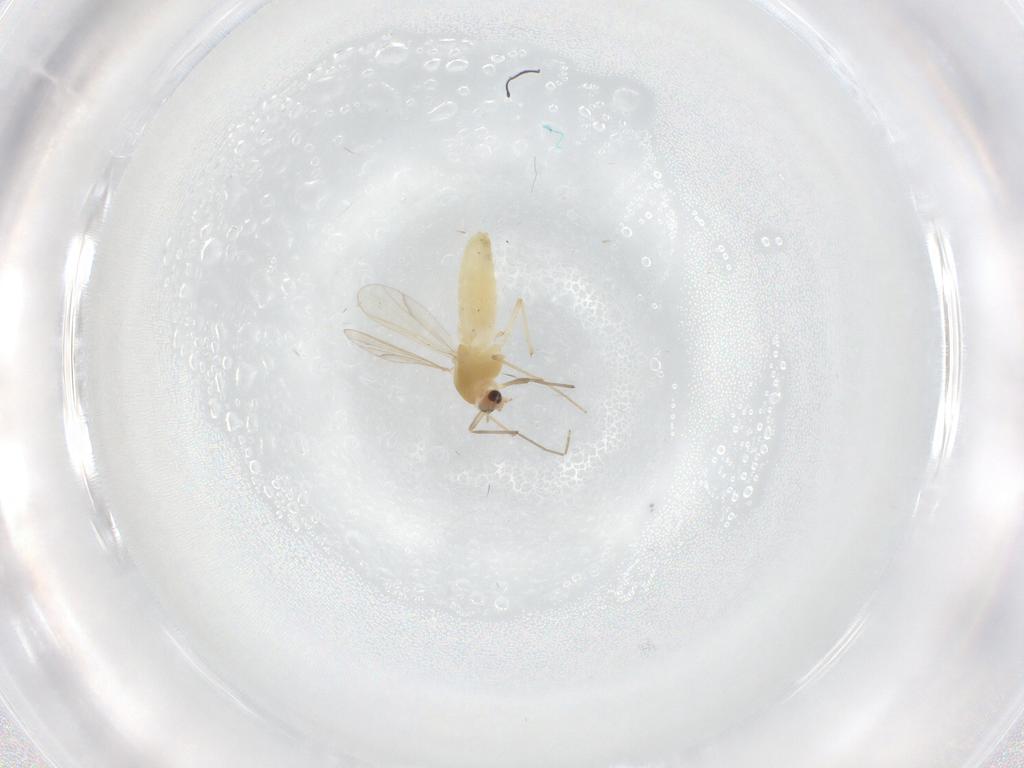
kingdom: Animalia
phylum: Arthropoda
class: Insecta
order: Diptera
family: Chironomidae
